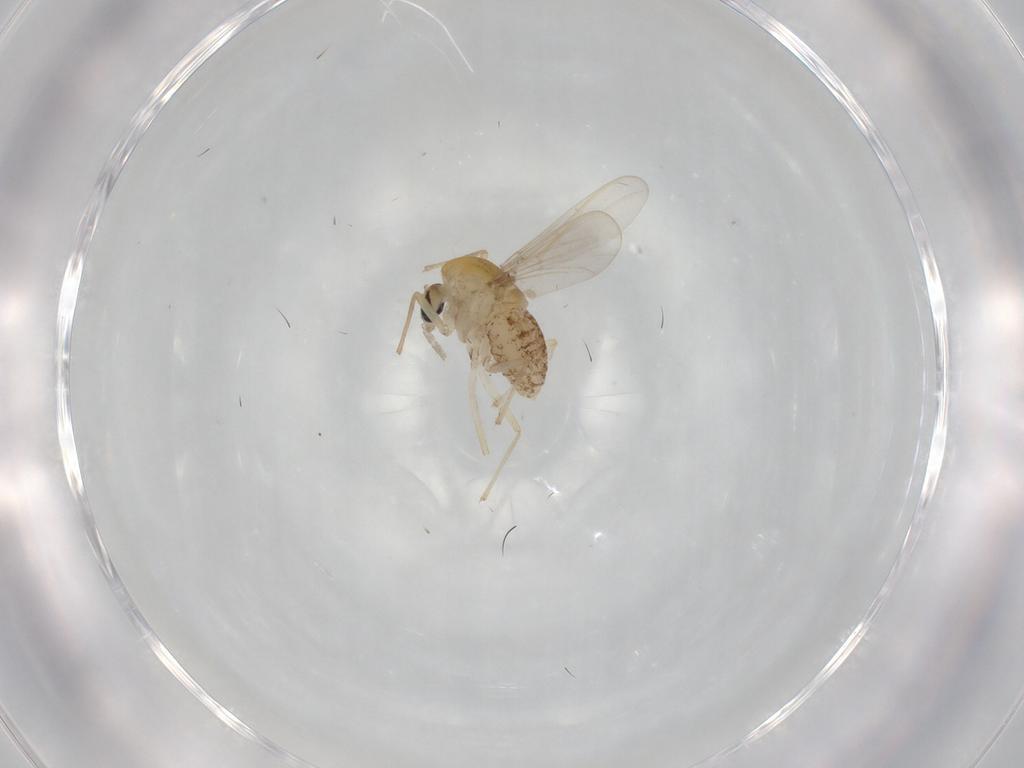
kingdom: Animalia
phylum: Arthropoda
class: Insecta
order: Diptera
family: Chironomidae
